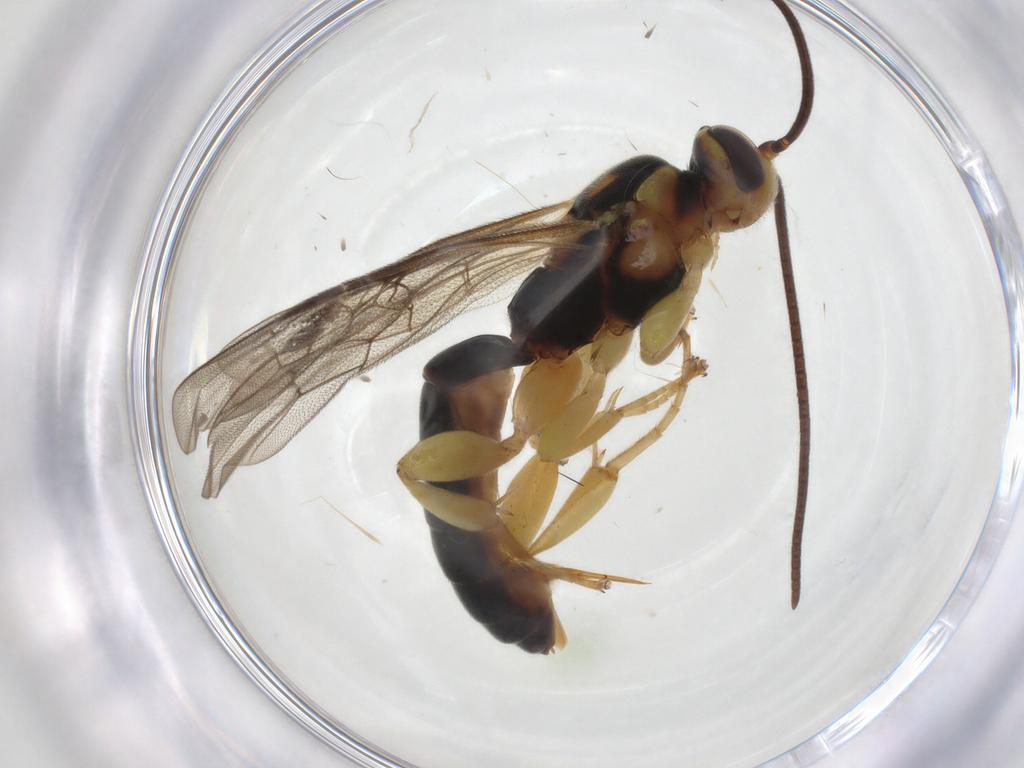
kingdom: Animalia
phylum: Arthropoda
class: Insecta
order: Hymenoptera
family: Ichneumonidae
